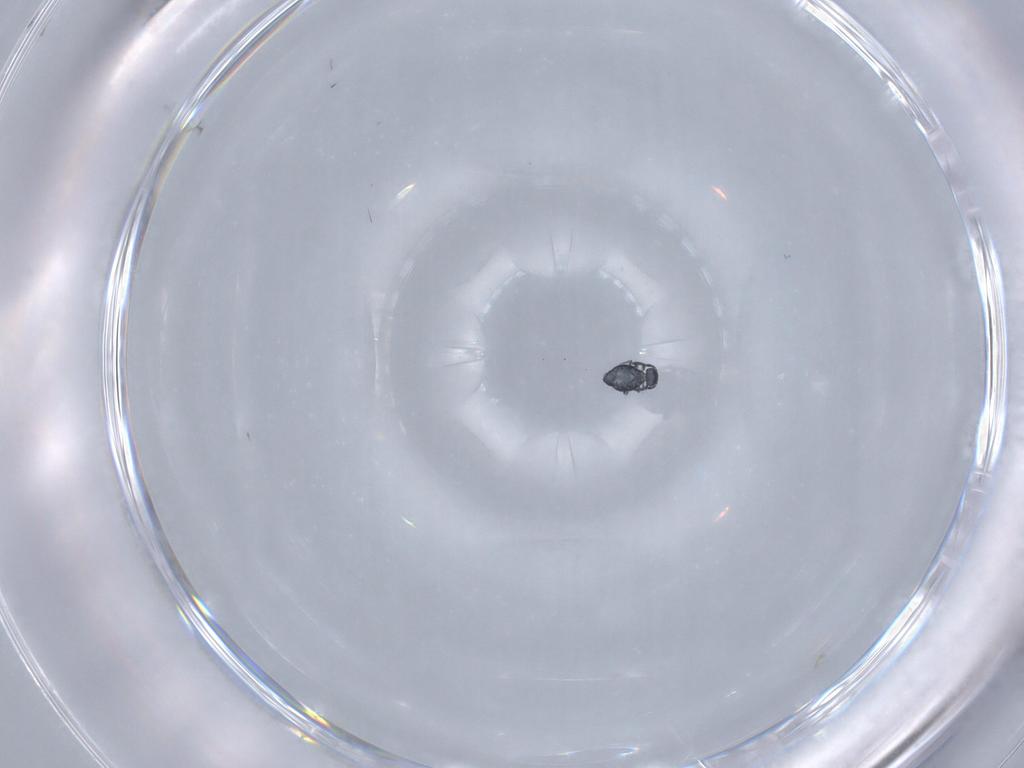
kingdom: Animalia
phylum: Arthropoda
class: Collembola
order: Symphypleona
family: Katiannidae
